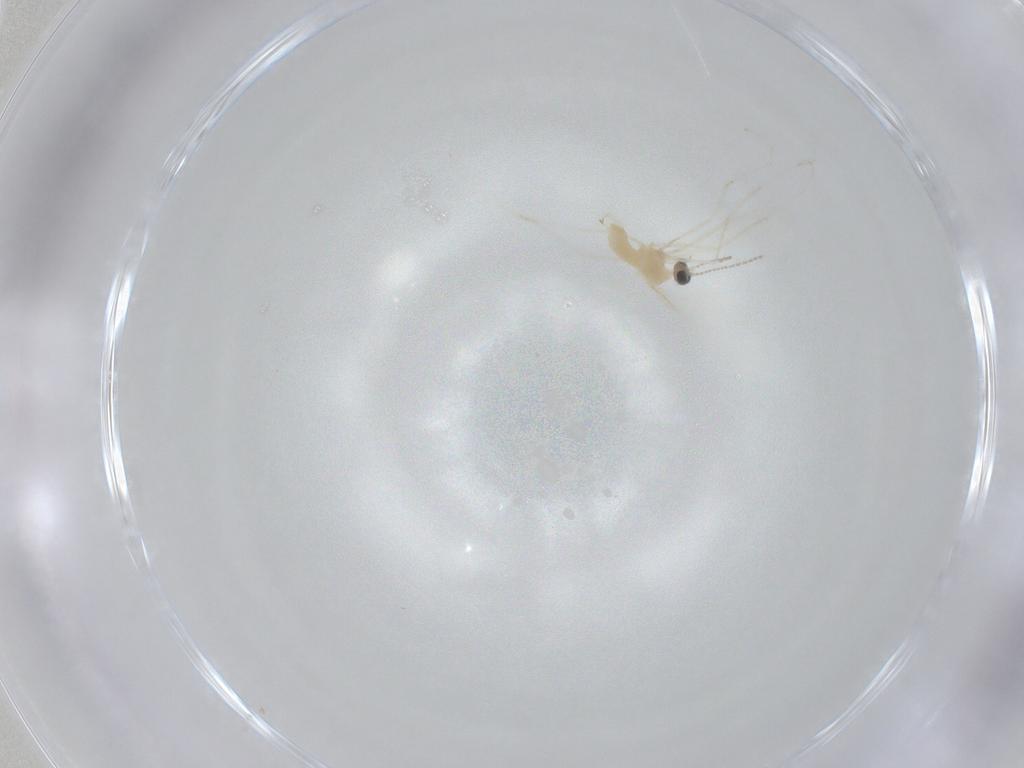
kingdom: Animalia
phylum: Arthropoda
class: Insecta
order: Diptera
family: Cecidomyiidae
